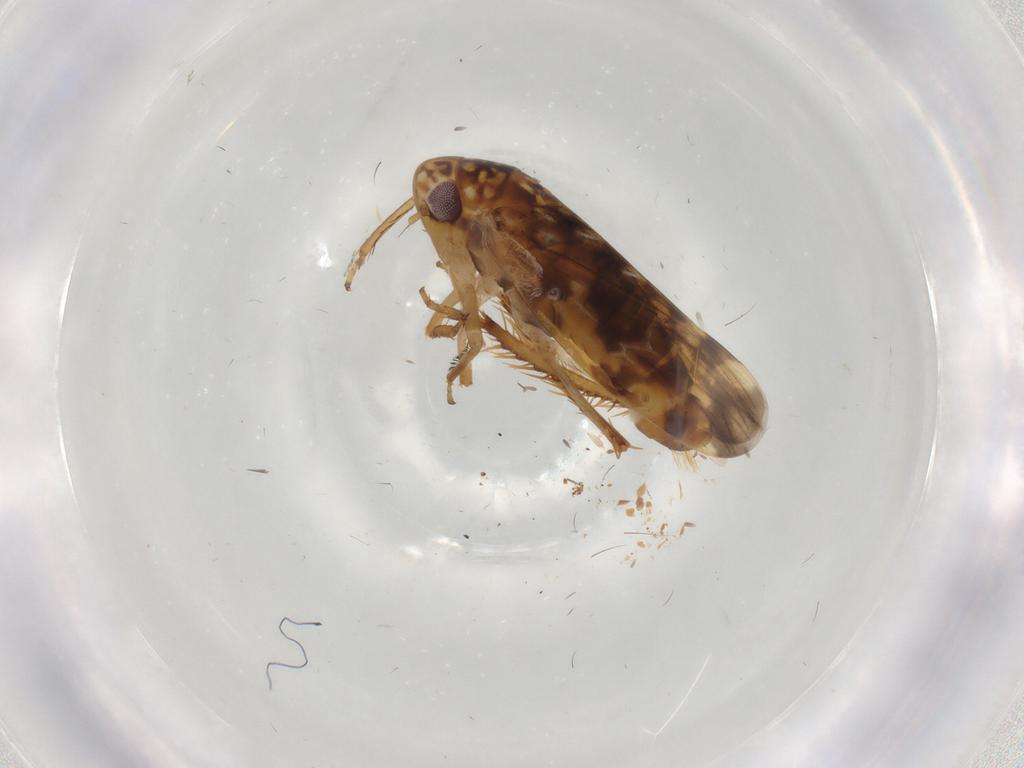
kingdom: Animalia
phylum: Arthropoda
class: Insecta
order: Hemiptera
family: Cicadellidae
